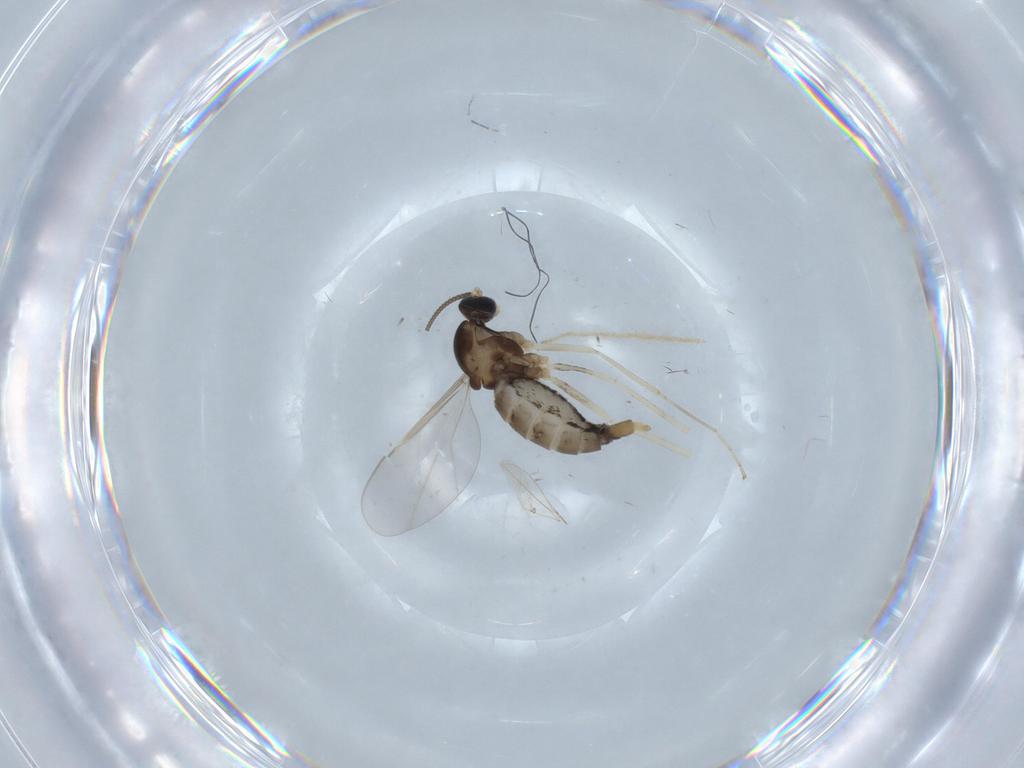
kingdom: Animalia
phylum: Arthropoda
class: Insecta
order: Diptera
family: Cecidomyiidae
